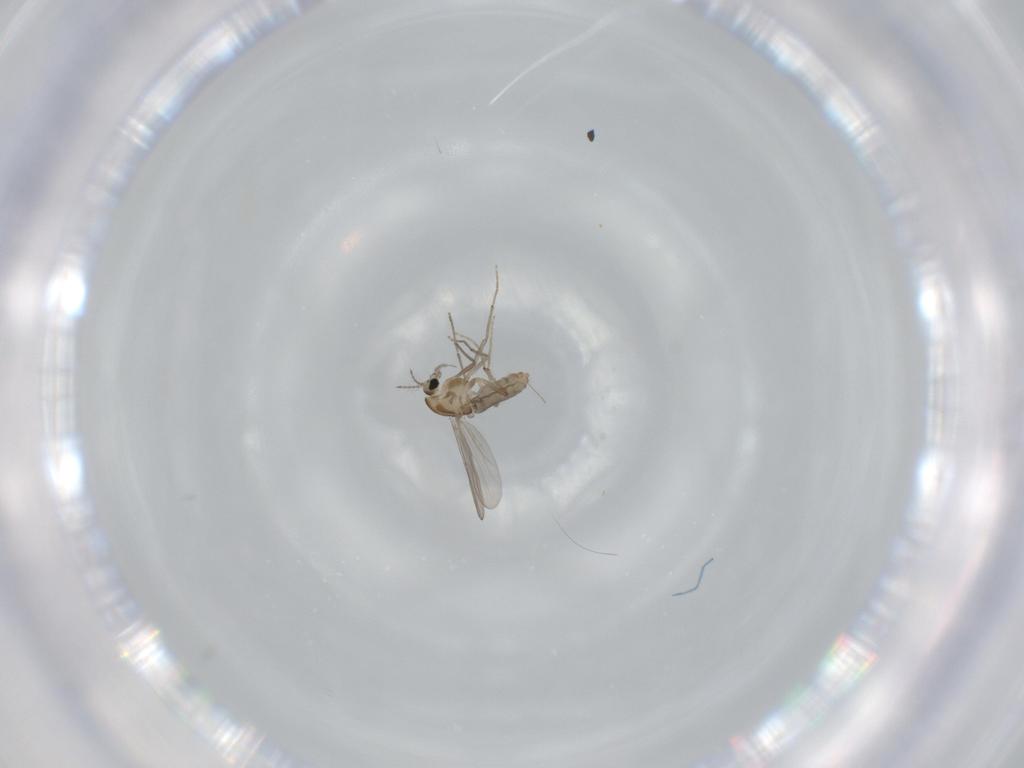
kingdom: Animalia
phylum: Arthropoda
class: Insecta
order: Diptera
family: Chironomidae
